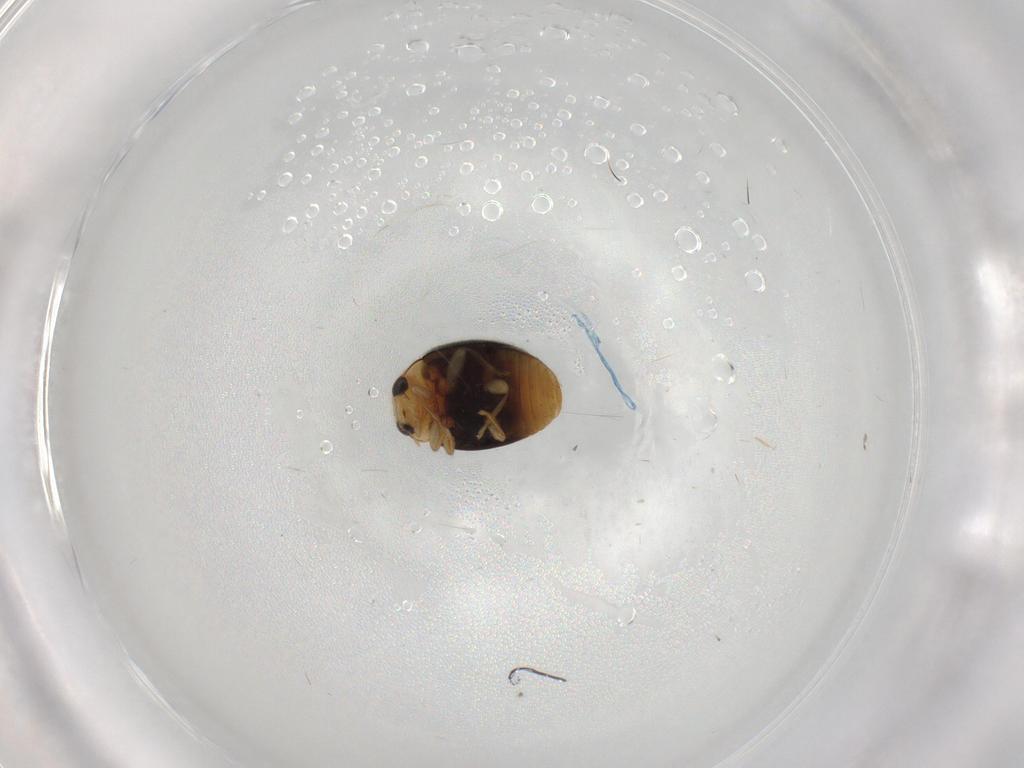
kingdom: Animalia
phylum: Arthropoda
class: Insecta
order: Coleoptera
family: Coccinellidae
